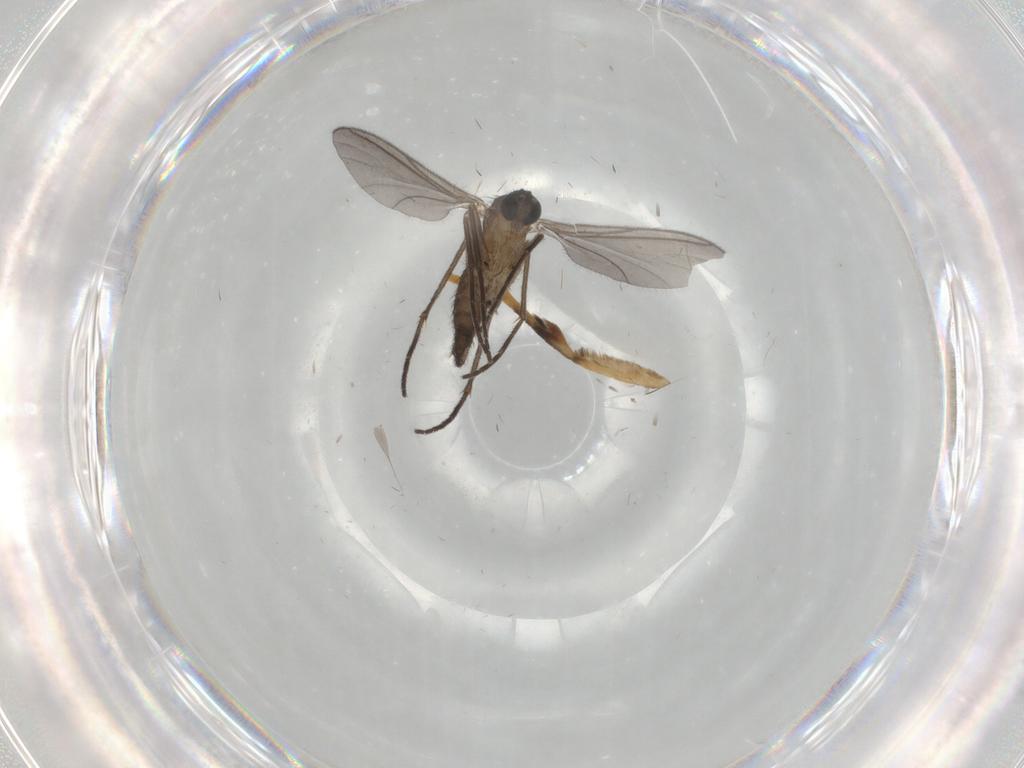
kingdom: Animalia
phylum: Arthropoda
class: Insecta
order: Diptera
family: Sciaridae
